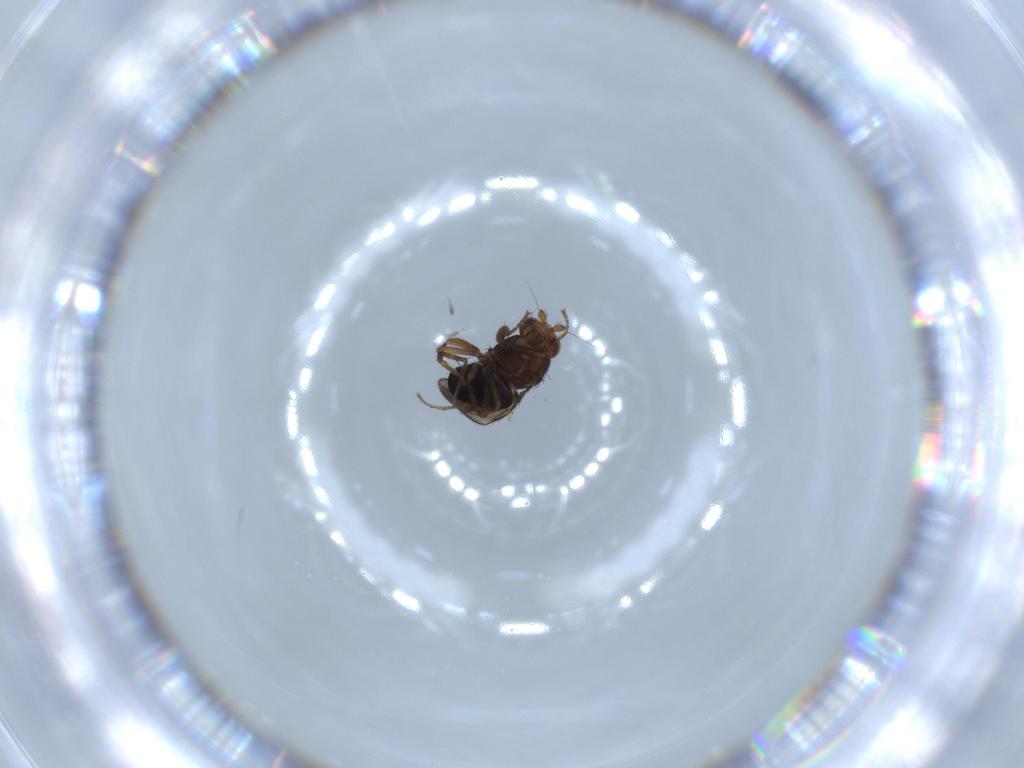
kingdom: Animalia
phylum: Arthropoda
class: Insecta
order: Diptera
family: Sphaeroceridae
